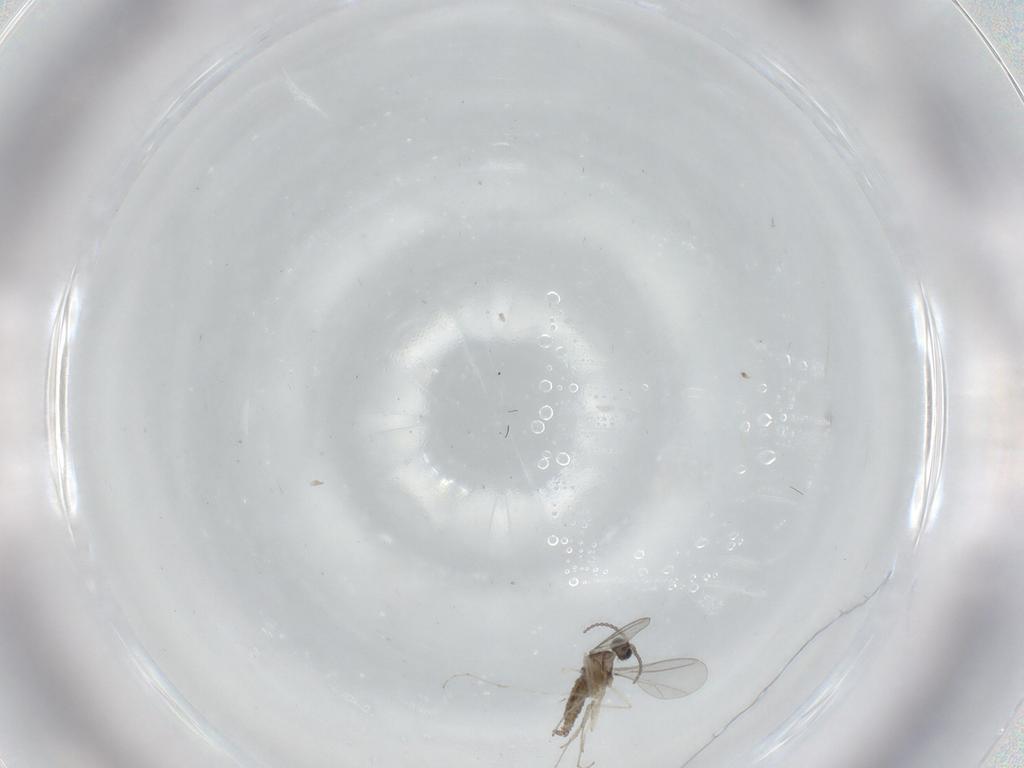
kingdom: Animalia
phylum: Arthropoda
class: Insecta
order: Diptera
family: Cecidomyiidae
